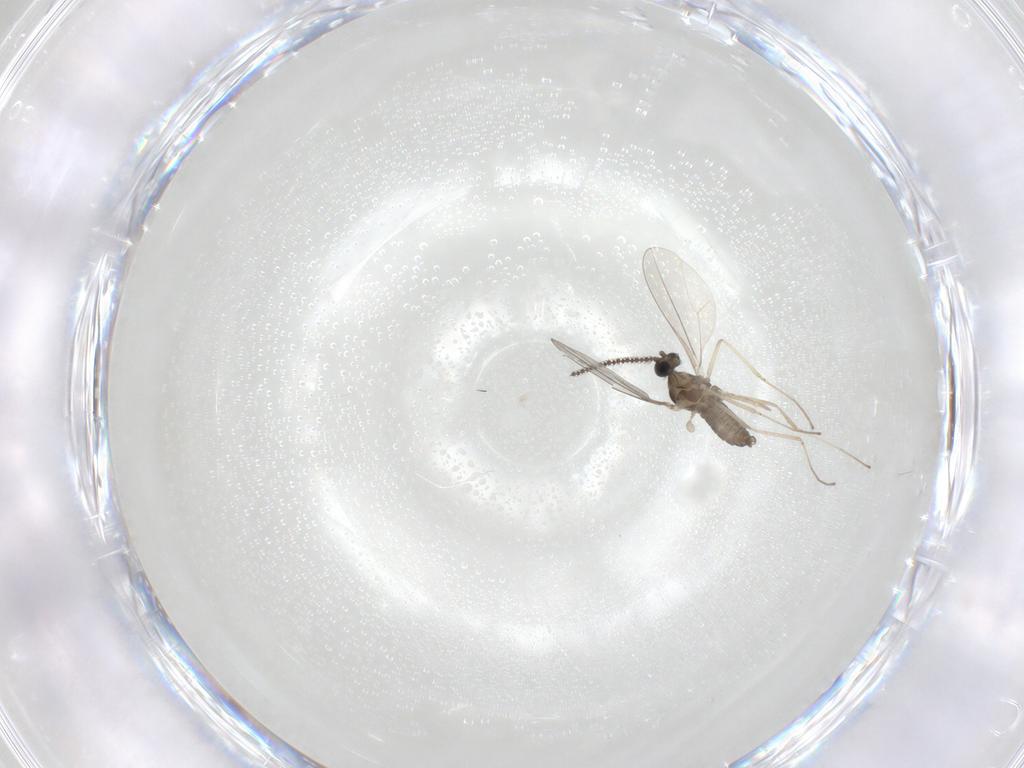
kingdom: Animalia
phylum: Arthropoda
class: Insecta
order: Diptera
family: Cecidomyiidae
